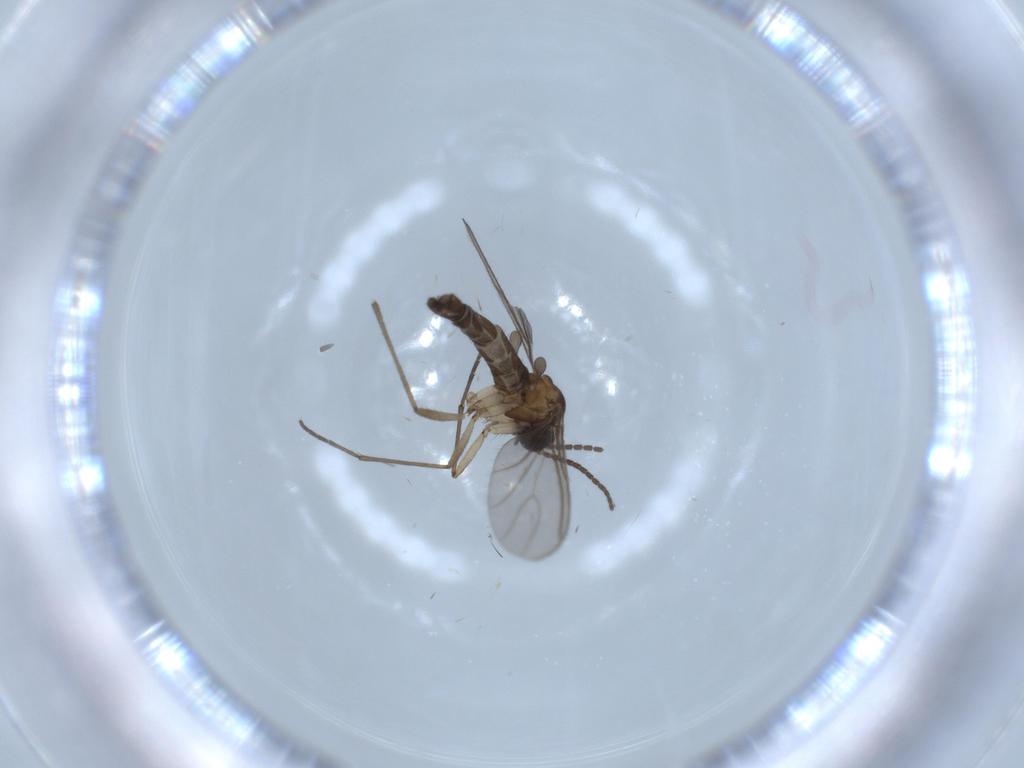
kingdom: Animalia
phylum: Arthropoda
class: Insecta
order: Diptera
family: Sciaridae
